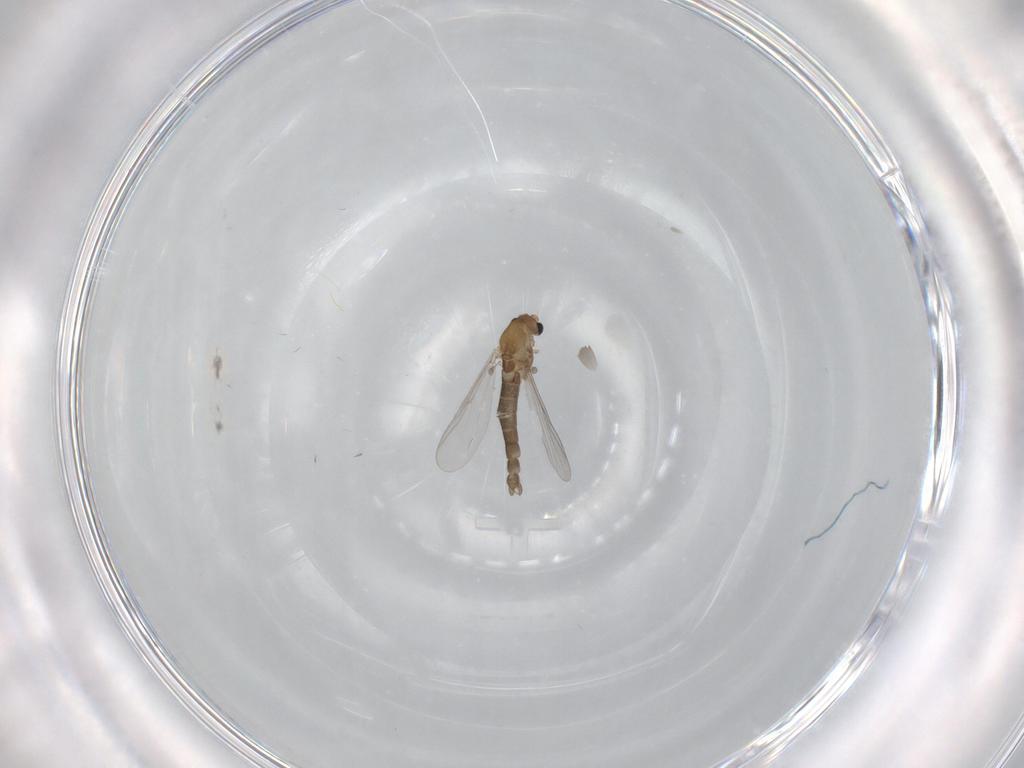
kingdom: Animalia
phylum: Arthropoda
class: Insecta
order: Diptera
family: Chironomidae
